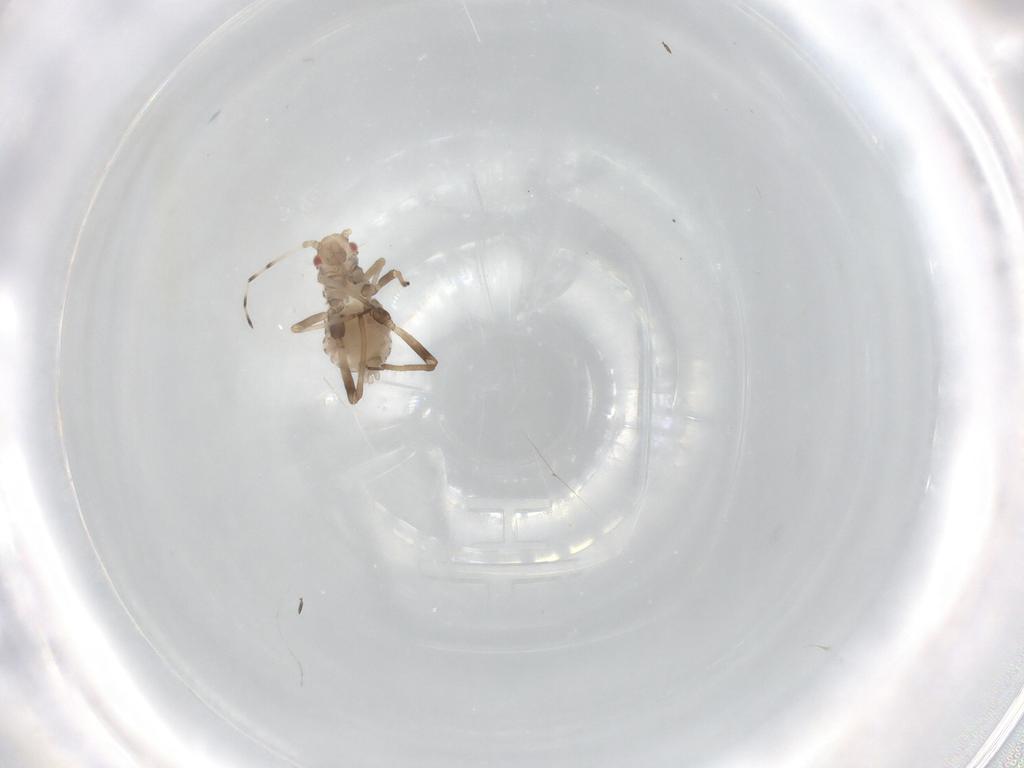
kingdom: Animalia
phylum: Arthropoda
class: Insecta
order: Hemiptera
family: Aphididae
